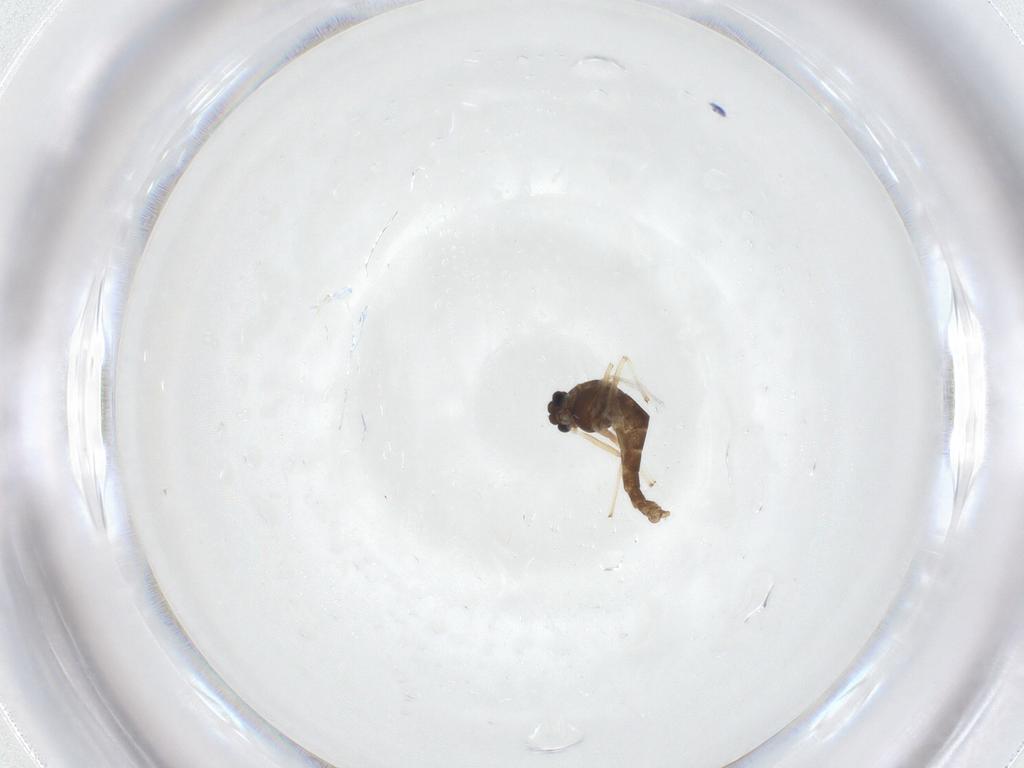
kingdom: Animalia
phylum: Arthropoda
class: Insecta
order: Diptera
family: Chironomidae
